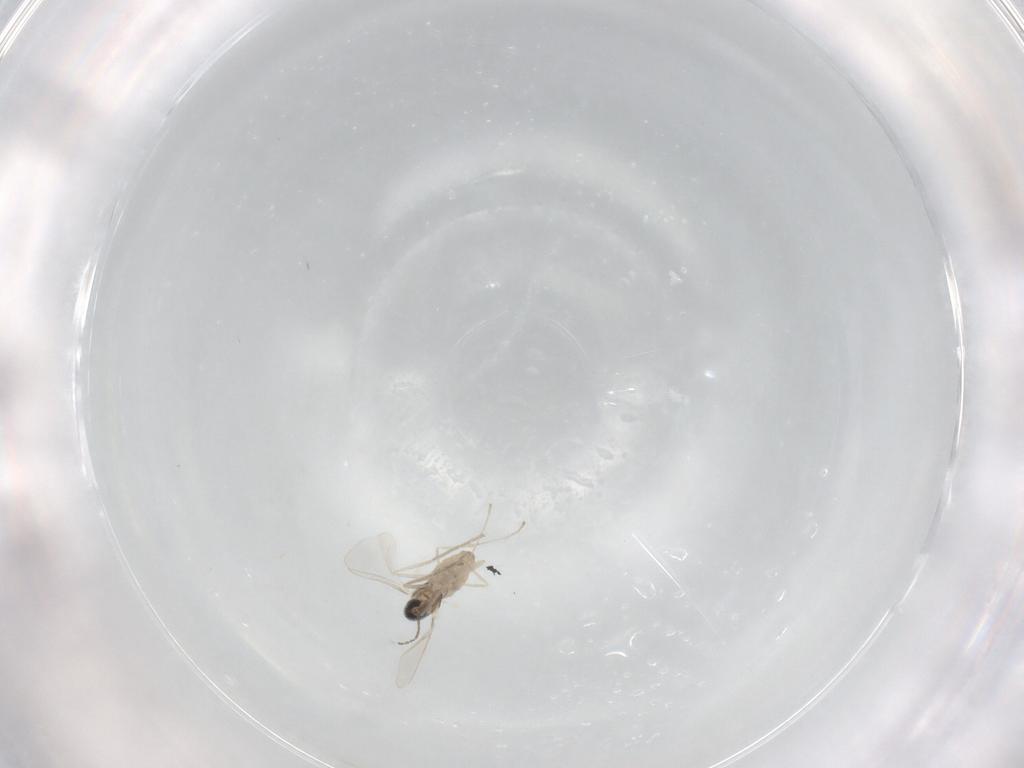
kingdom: Animalia
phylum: Arthropoda
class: Insecta
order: Diptera
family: Cecidomyiidae
